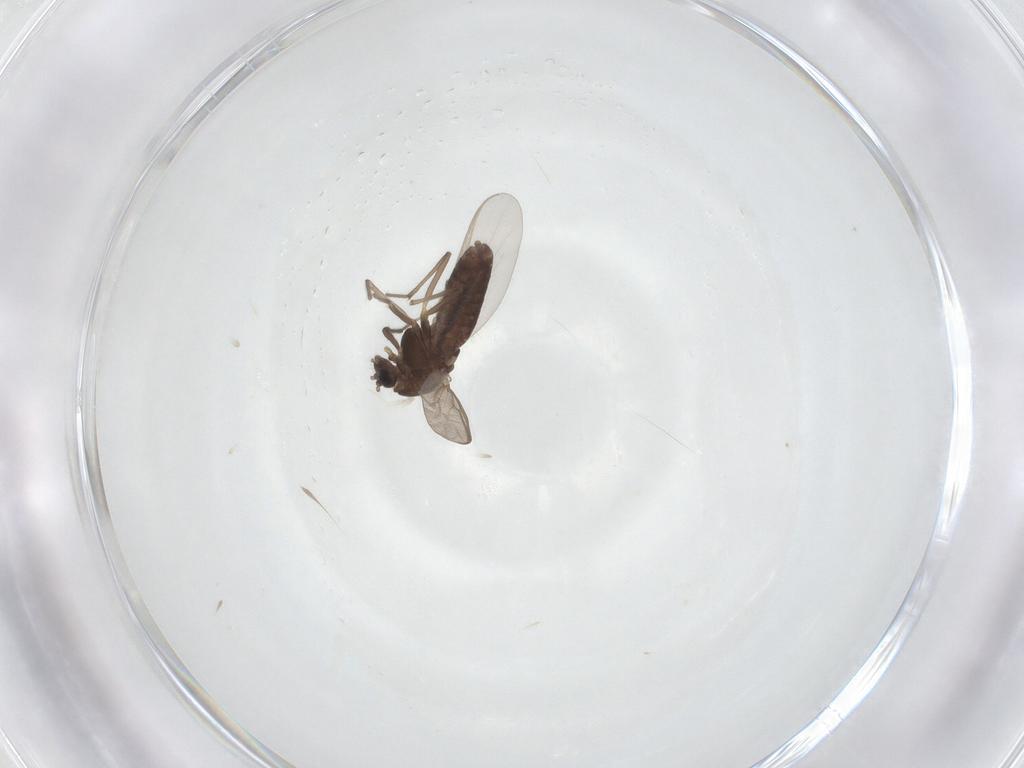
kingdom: Animalia
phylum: Arthropoda
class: Insecta
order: Diptera
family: Chironomidae
